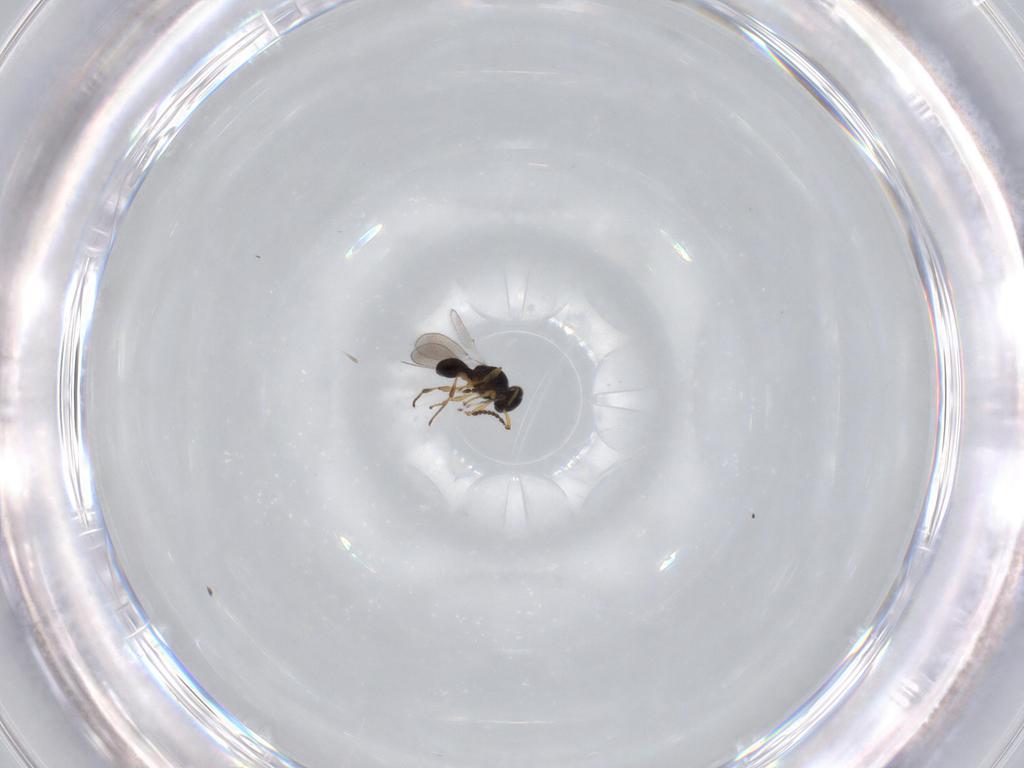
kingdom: Animalia
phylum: Arthropoda
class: Insecta
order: Hymenoptera
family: Platygastridae
